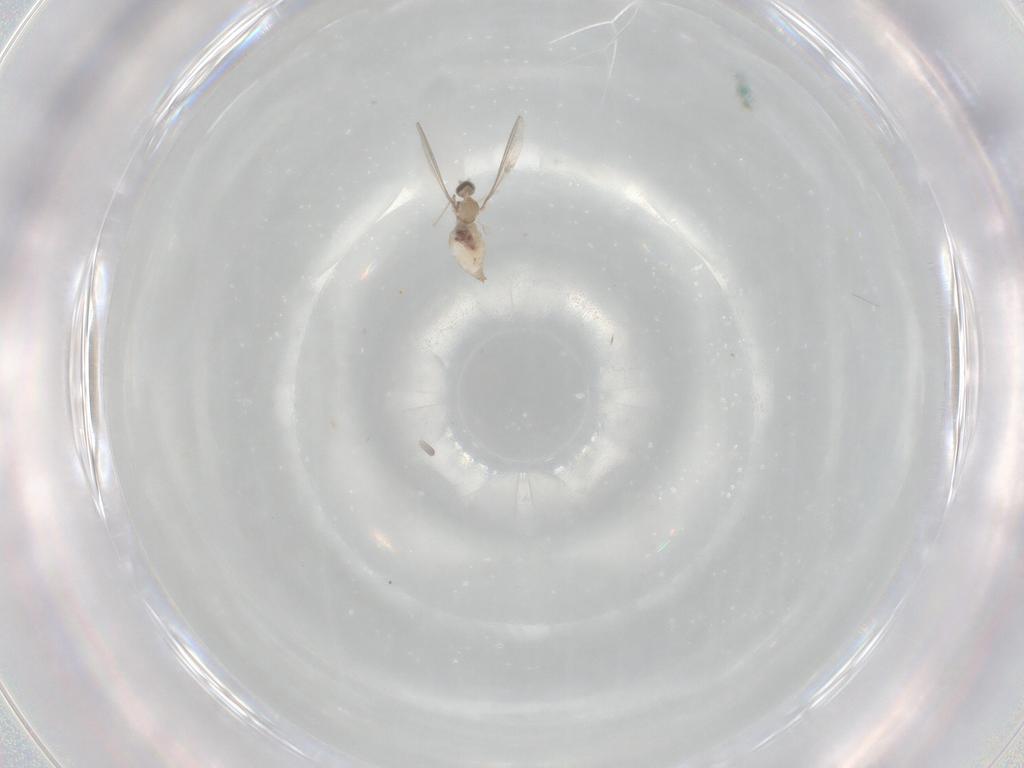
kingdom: Animalia
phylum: Arthropoda
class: Insecta
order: Diptera
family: Cecidomyiidae
